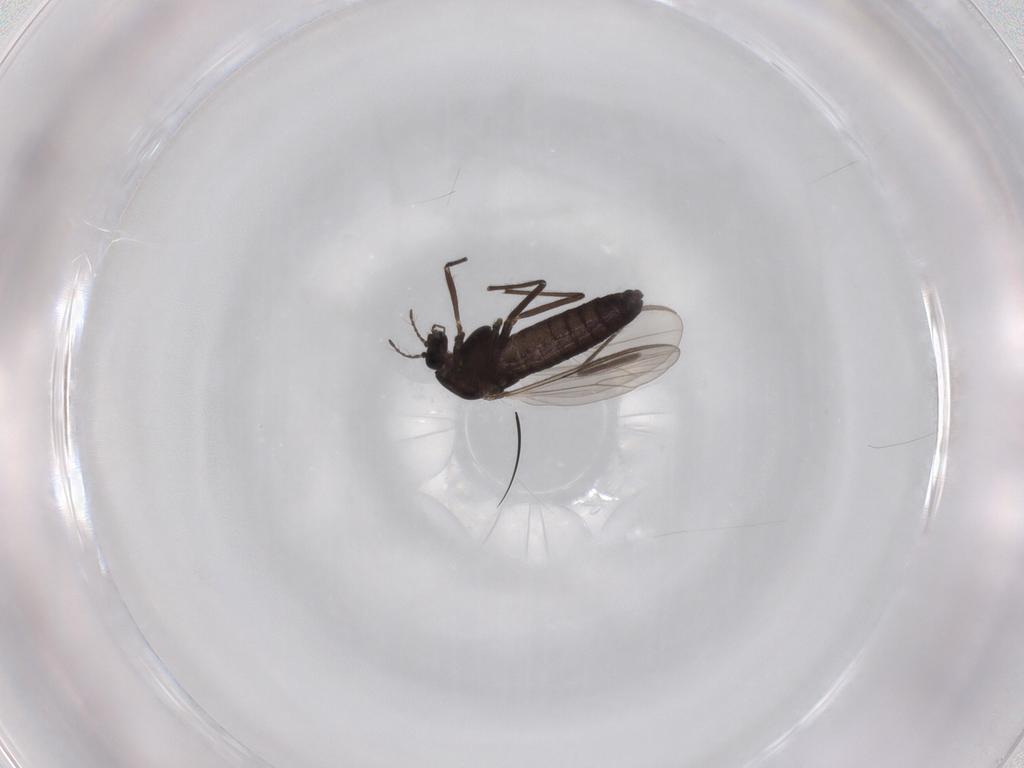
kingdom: Animalia
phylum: Arthropoda
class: Insecta
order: Diptera
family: Chironomidae
